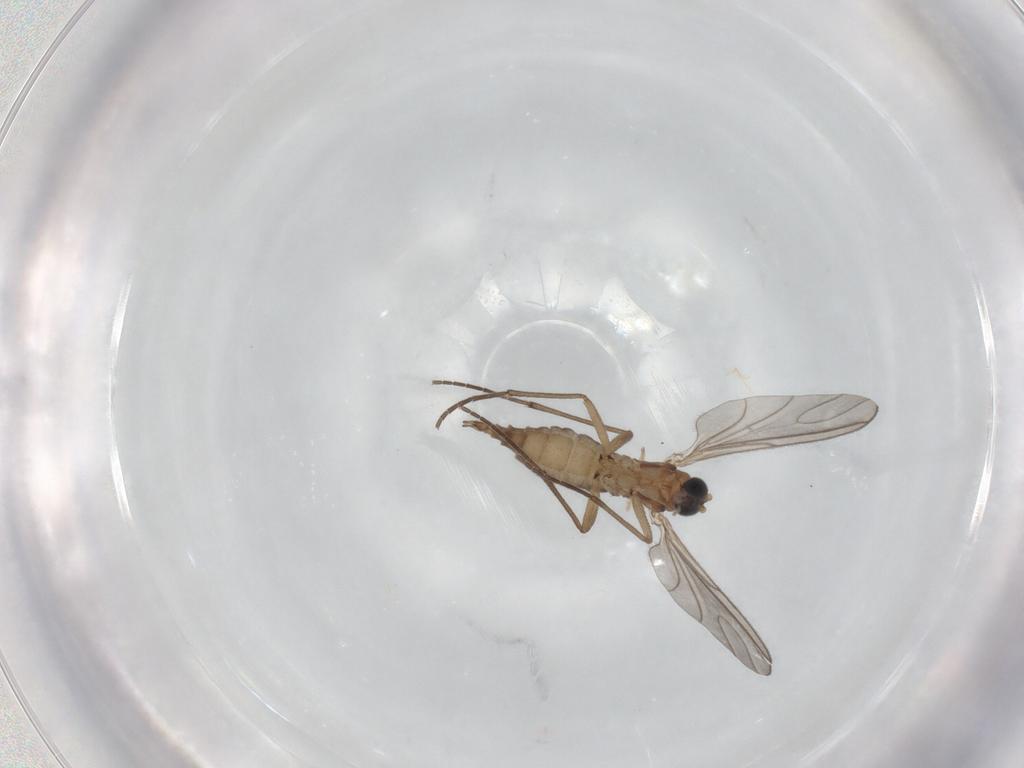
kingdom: Animalia
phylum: Arthropoda
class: Insecta
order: Diptera
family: Sciaridae
